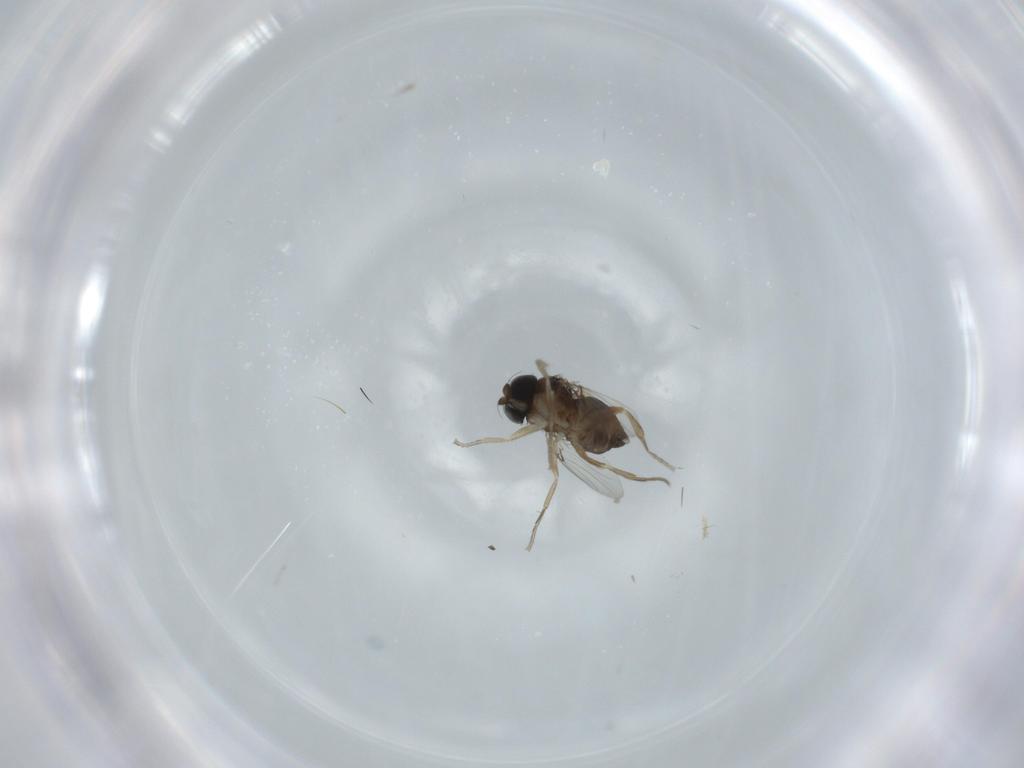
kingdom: Animalia
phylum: Arthropoda
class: Insecta
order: Diptera
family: Phoridae
